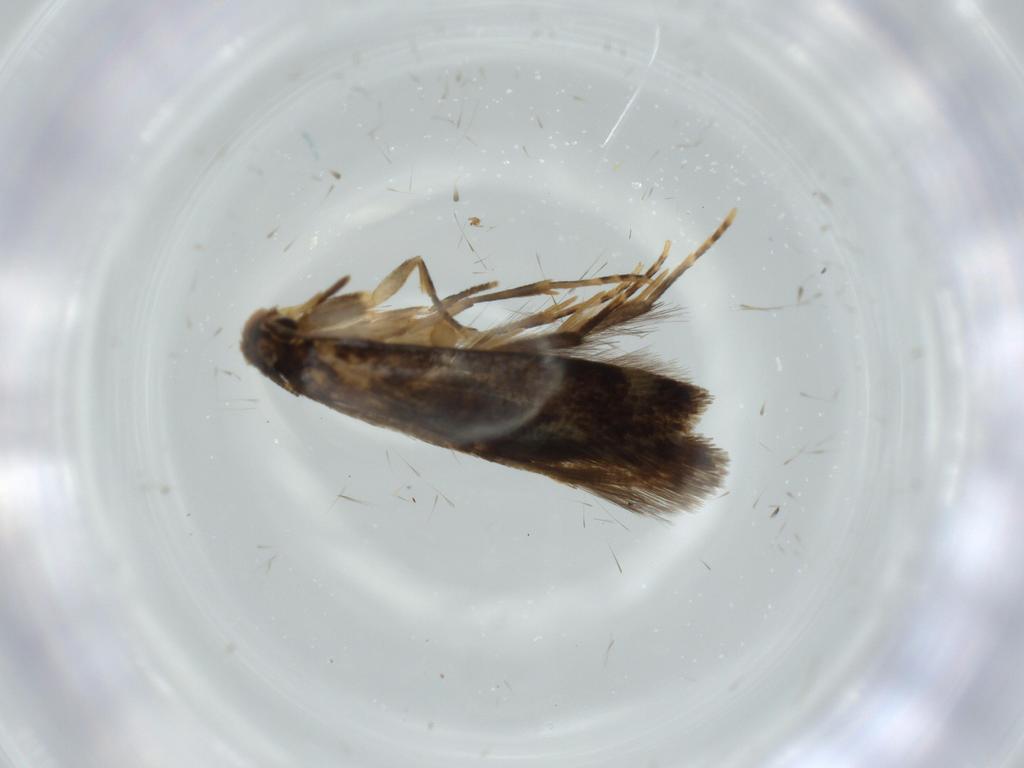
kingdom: Animalia
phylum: Arthropoda
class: Insecta
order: Lepidoptera
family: Tineidae
